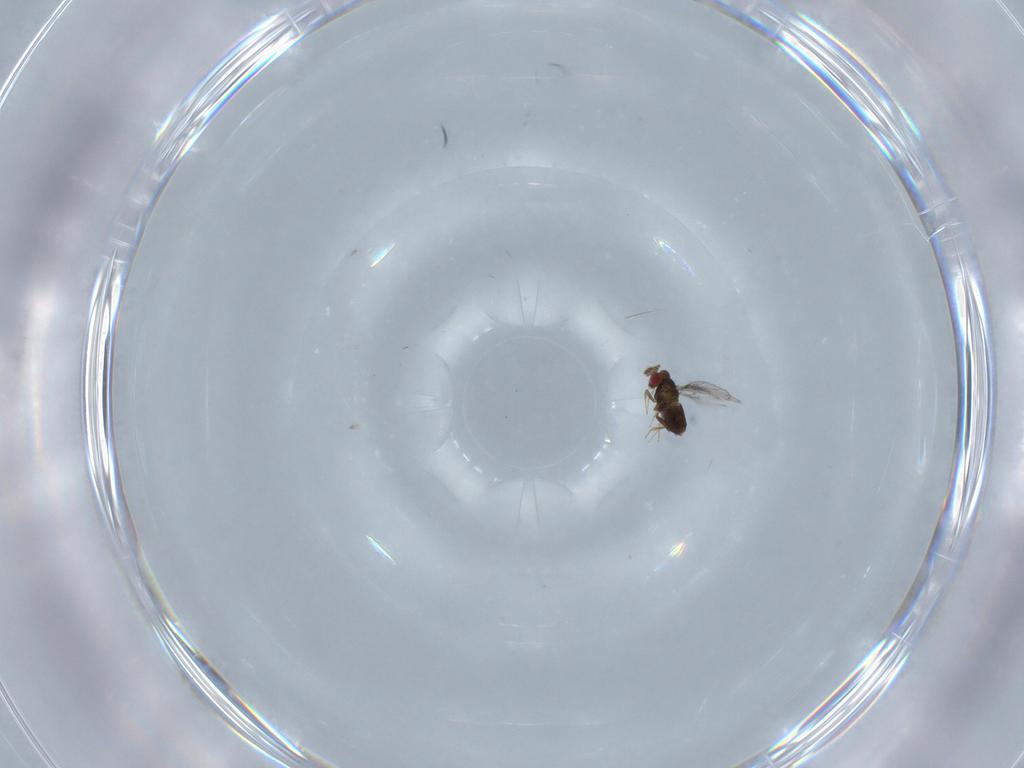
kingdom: Animalia
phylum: Arthropoda
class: Insecta
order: Hymenoptera
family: Trichogrammatidae
